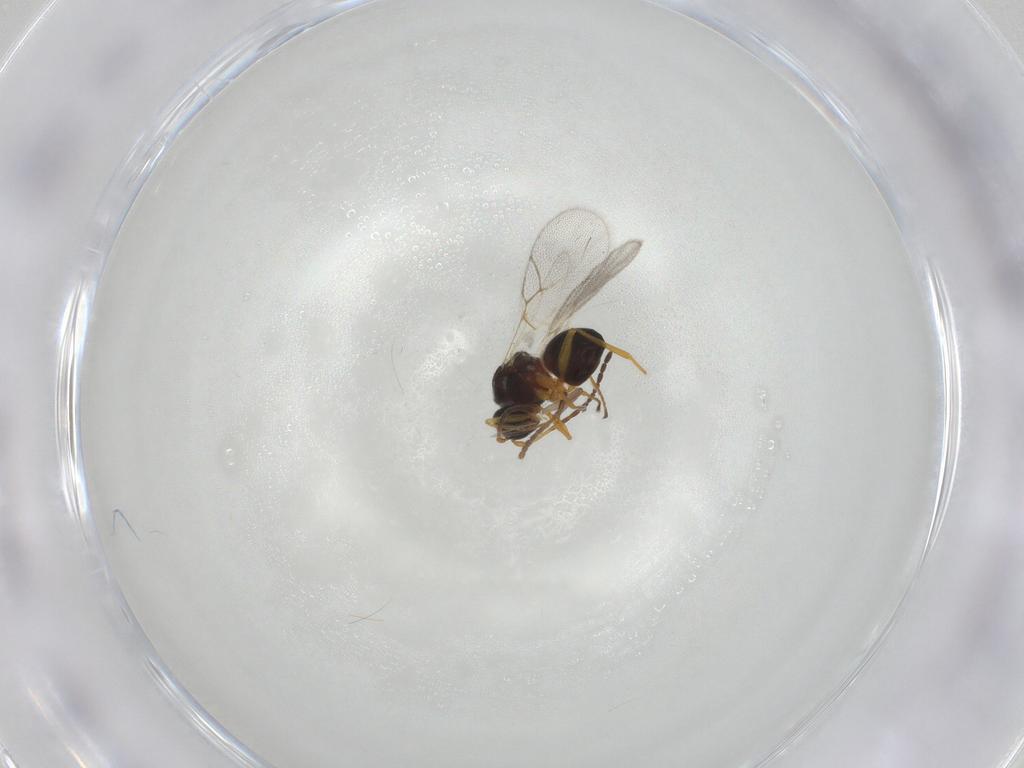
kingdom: Animalia
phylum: Arthropoda
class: Insecta
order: Hymenoptera
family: Figitidae
